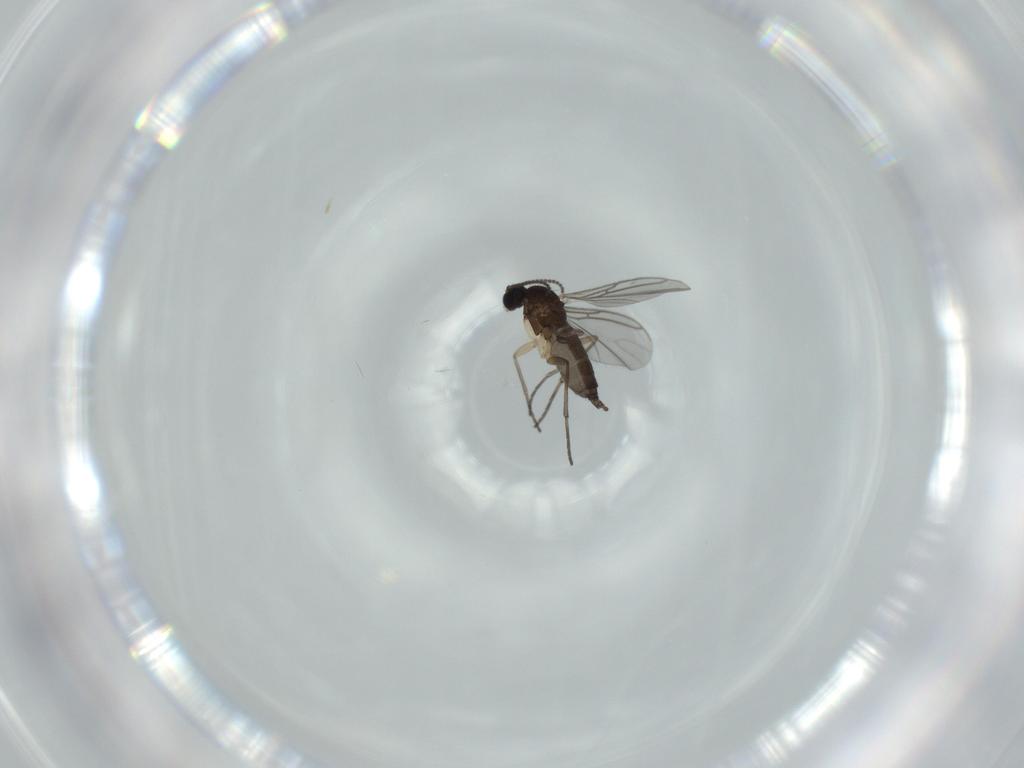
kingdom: Animalia
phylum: Arthropoda
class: Insecta
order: Diptera
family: Sciaridae
